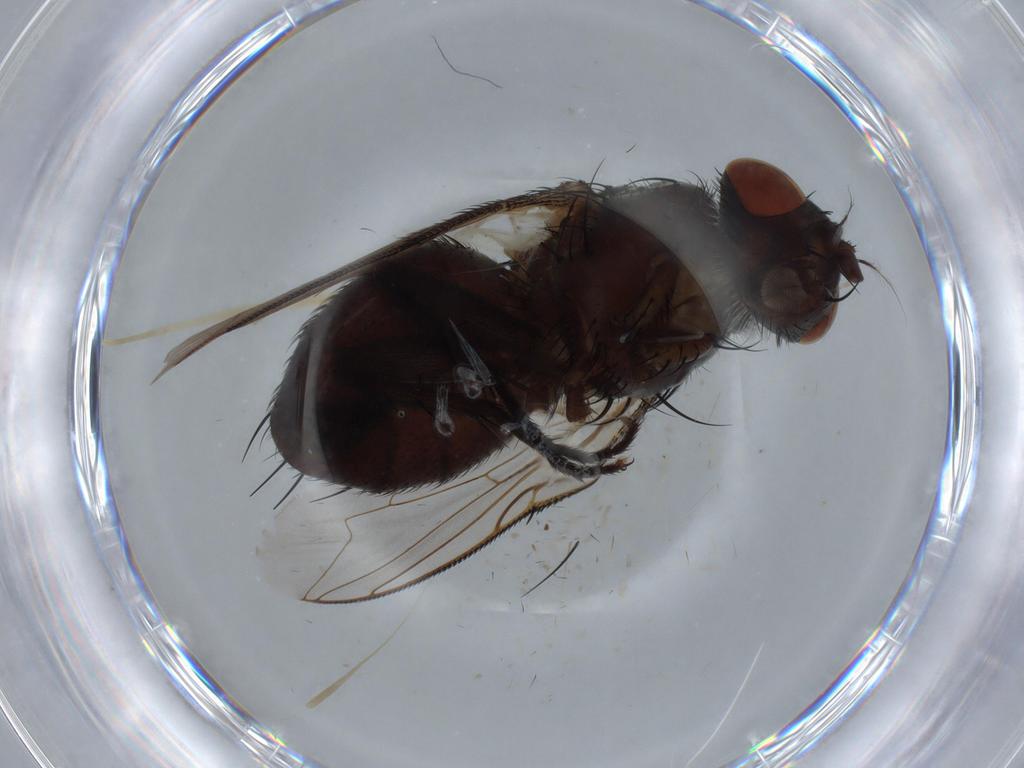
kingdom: Animalia
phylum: Arthropoda
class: Insecta
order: Diptera
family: Sarcophagidae
